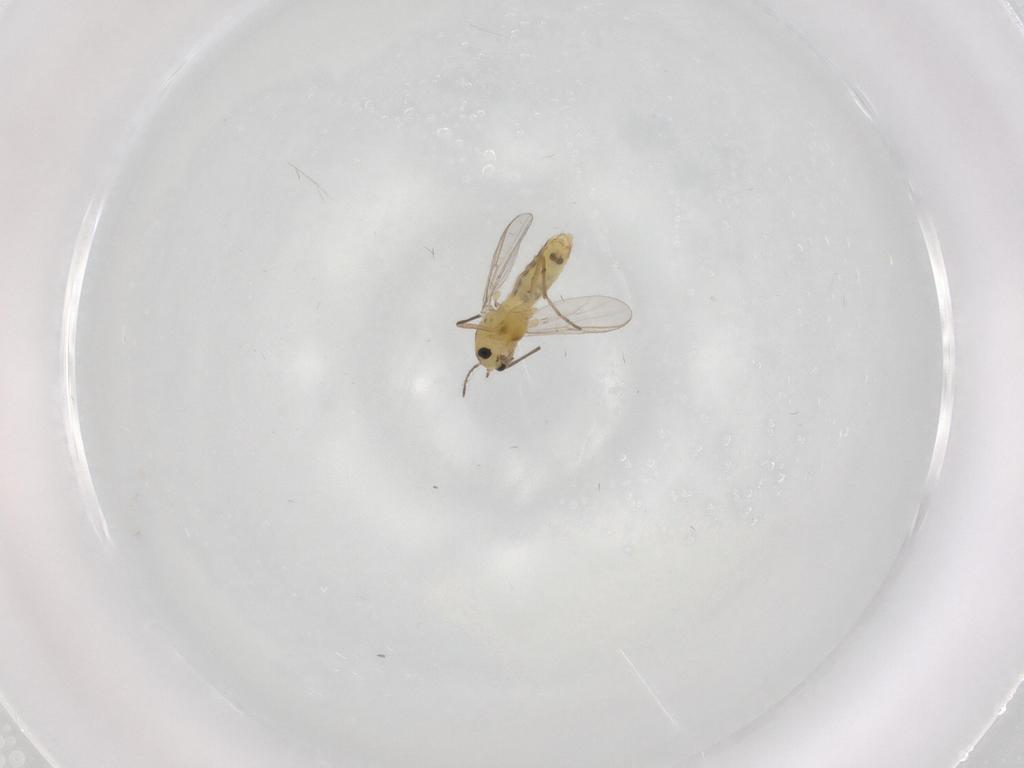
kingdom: Animalia
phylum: Arthropoda
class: Insecta
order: Diptera
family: Chironomidae
